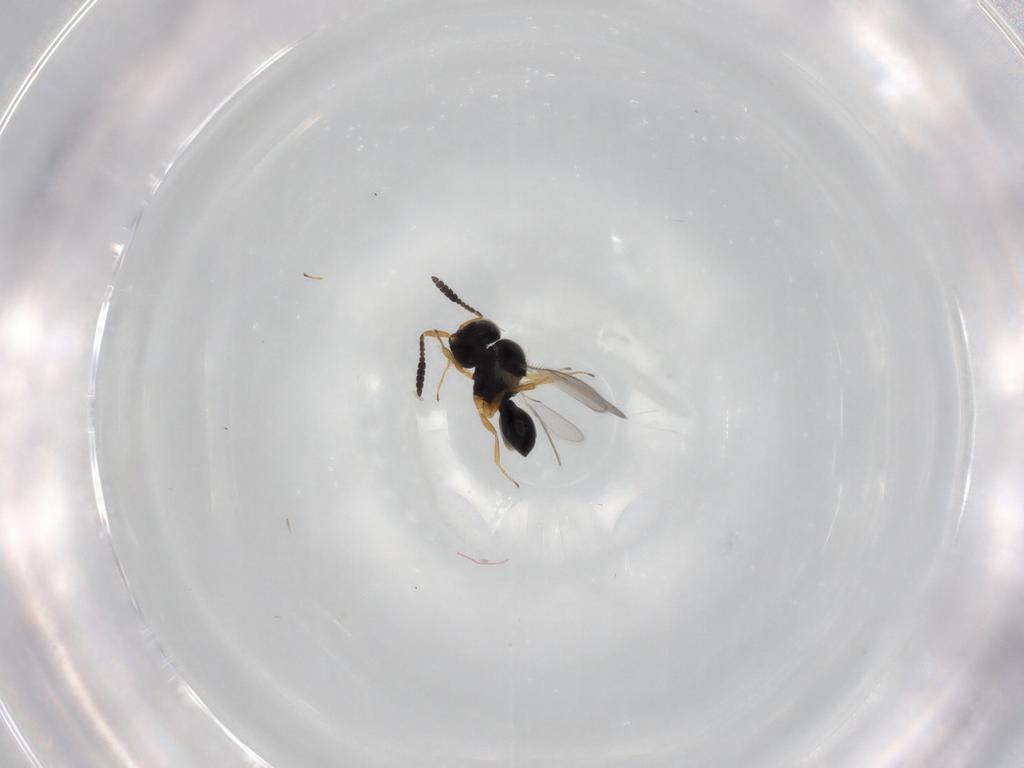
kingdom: Animalia
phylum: Arthropoda
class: Insecta
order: Hymenoptera
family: Scelionidae
